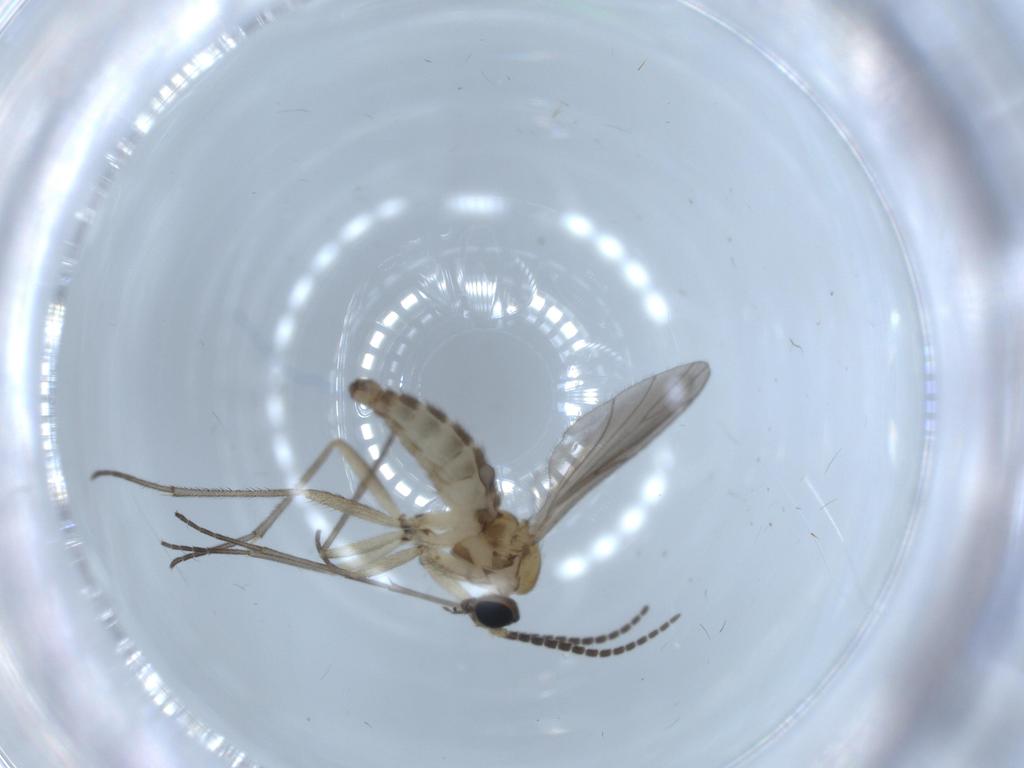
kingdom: Animalia
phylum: Arthropoda
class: Insecta
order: Diptera
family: Sciaridae
